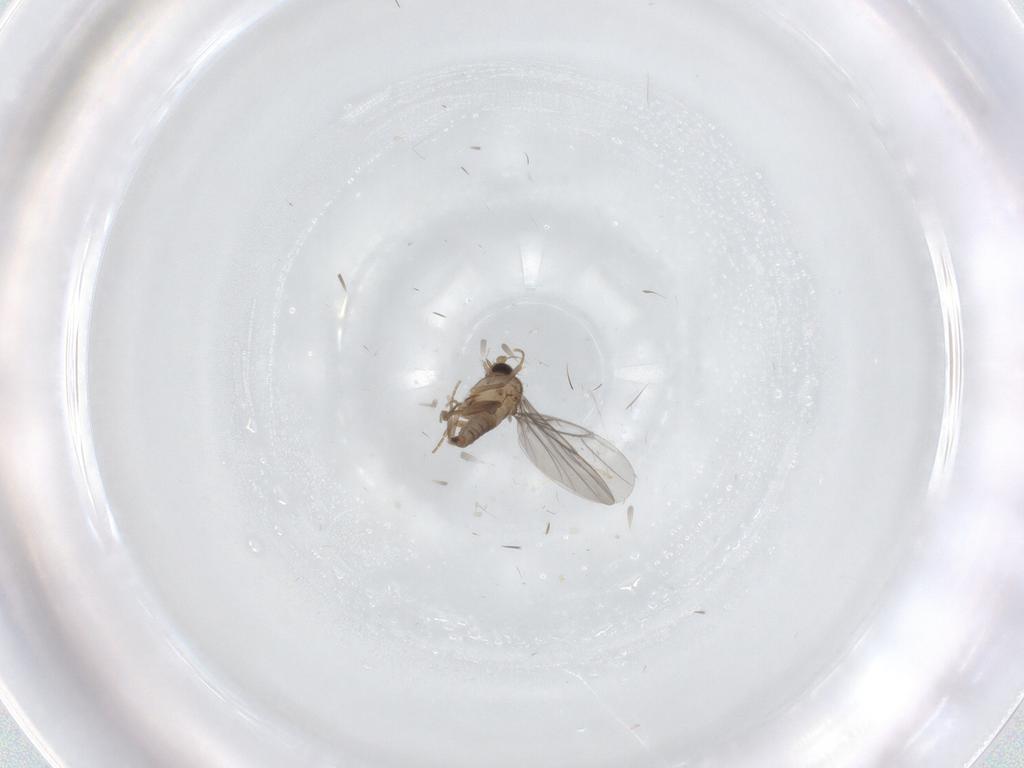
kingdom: Animalia
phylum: Arthropoda
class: Insecta
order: Diptera
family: Cecidomyiidae
